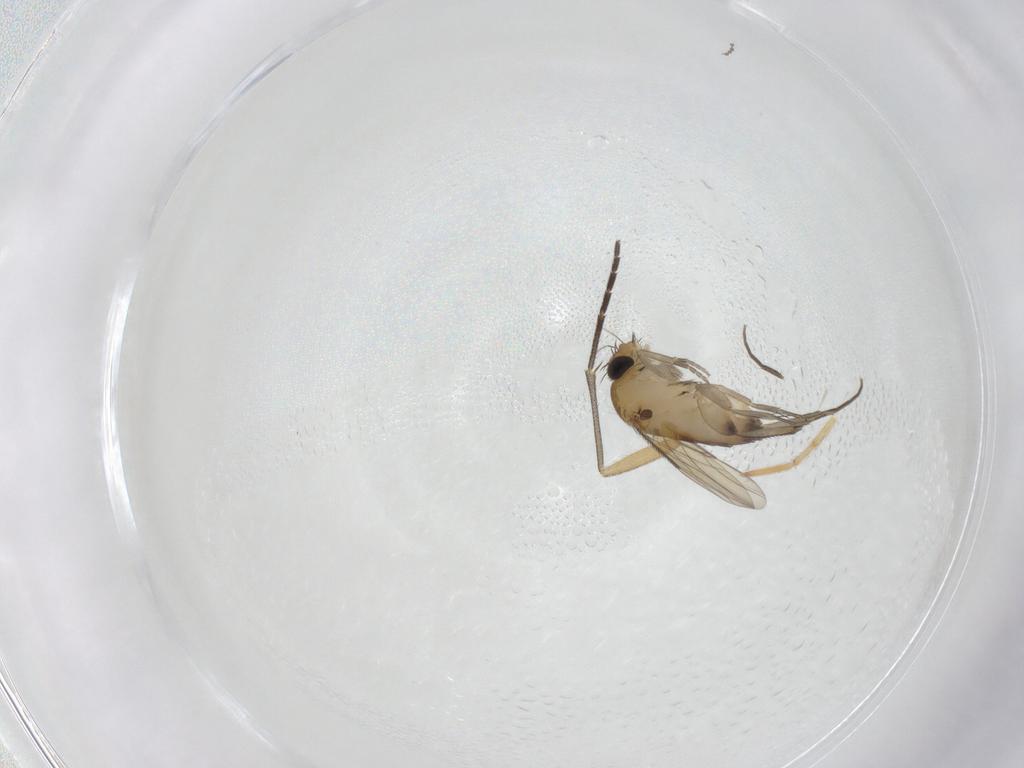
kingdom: Animalia
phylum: Arthropoda
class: Insecta
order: Diptera
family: Phoridae
